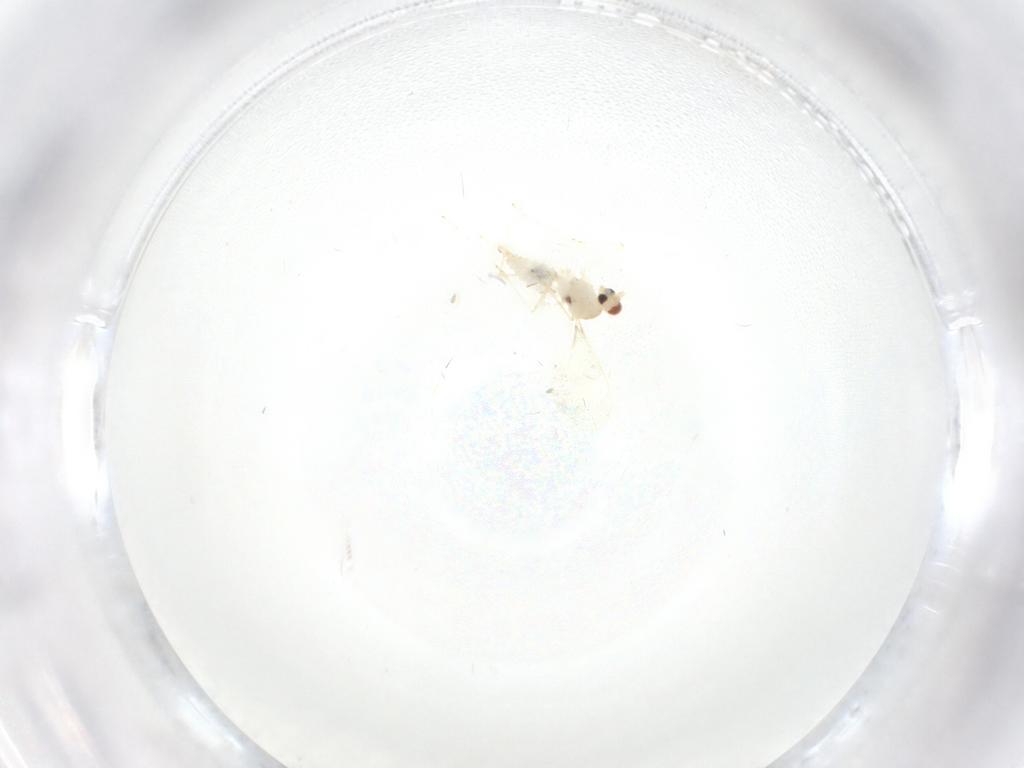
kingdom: Animalia
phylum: Arthropoda
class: Insecta
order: Diptera
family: Cecidomyiidae
